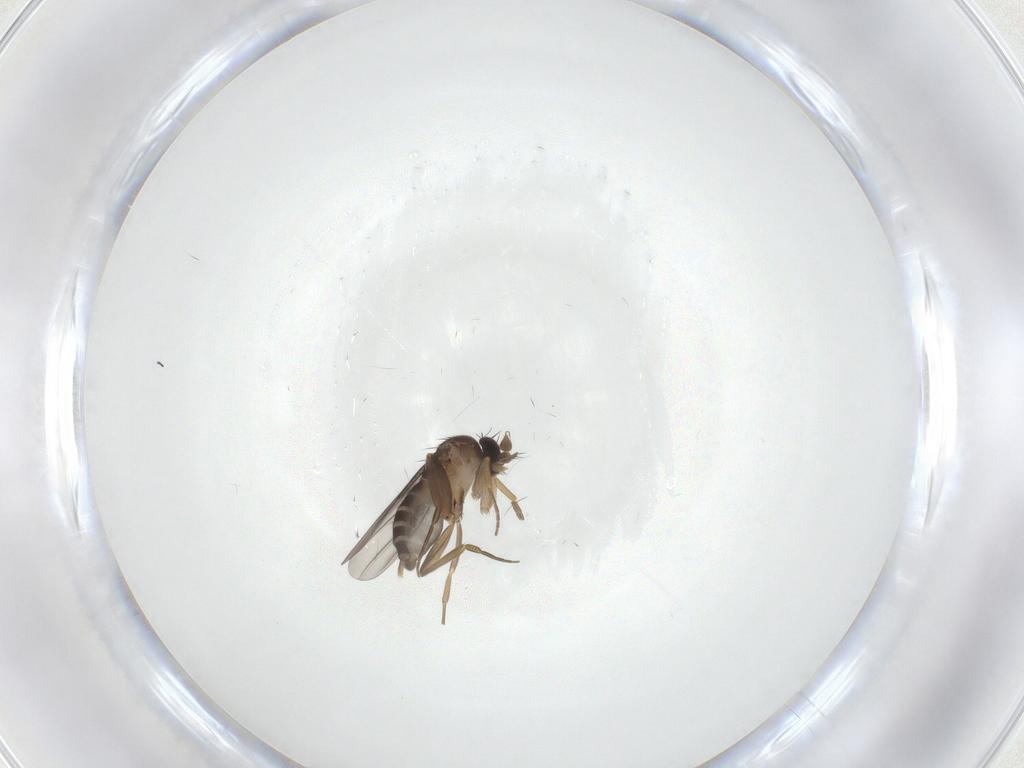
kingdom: Animalia
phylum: Arthropoda
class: Insecta
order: Diptera
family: Phoridae
